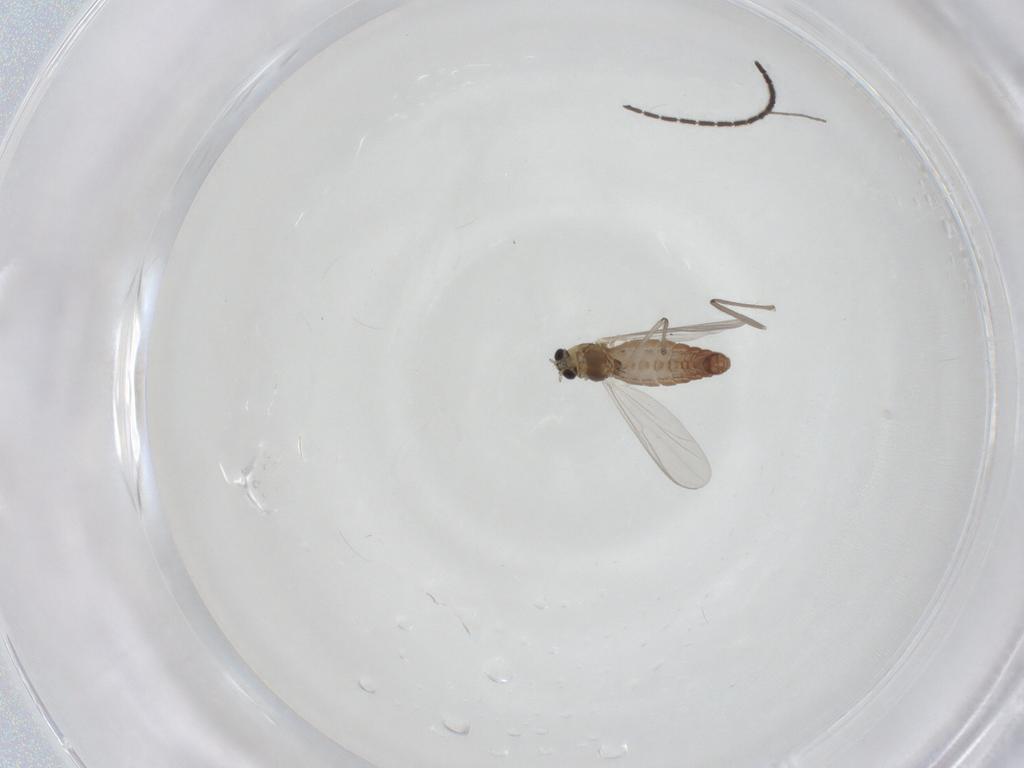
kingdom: Animalia
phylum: Arthropoda
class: Insecta
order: Diptera
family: Chironomidae
